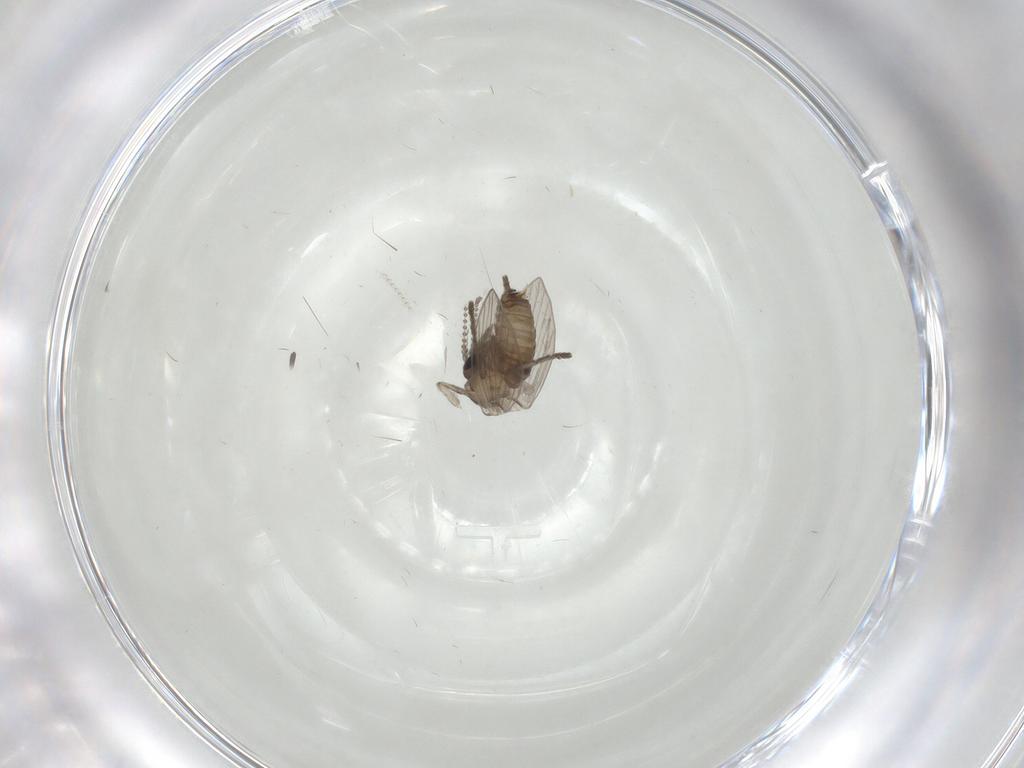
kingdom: Animalia
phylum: Arthropoda
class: Insecta
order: Diptera
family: Psychodidae
